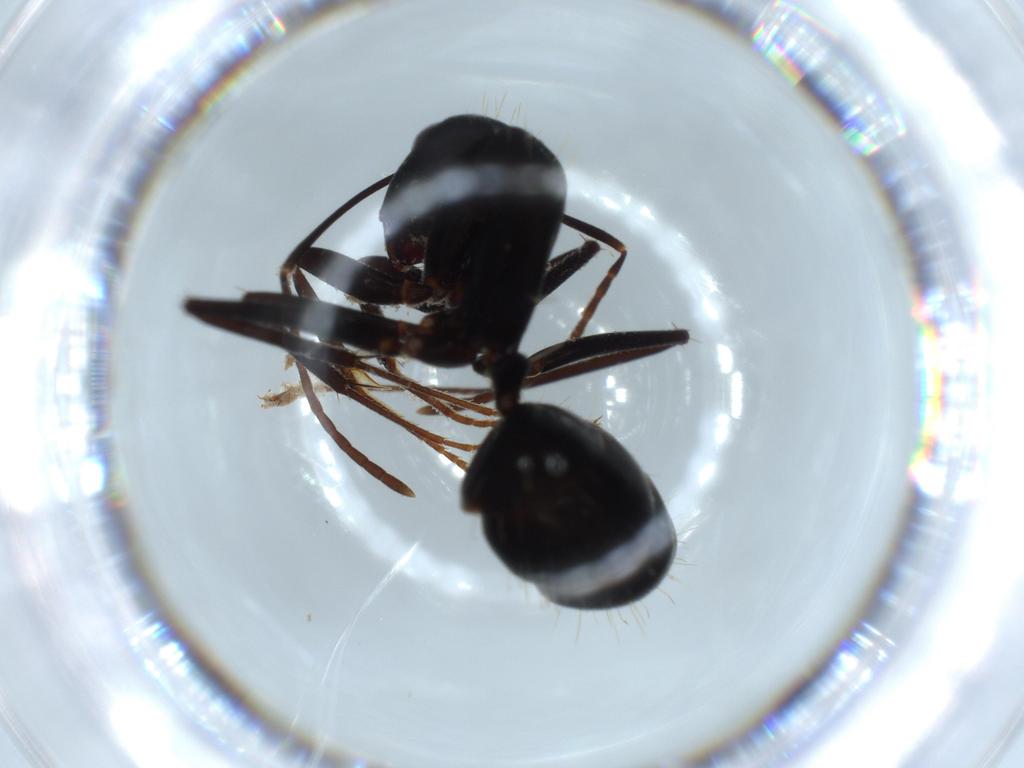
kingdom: Animalia
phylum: Arthropoda
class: Insecta
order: Hymenoptera
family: Formicidae
